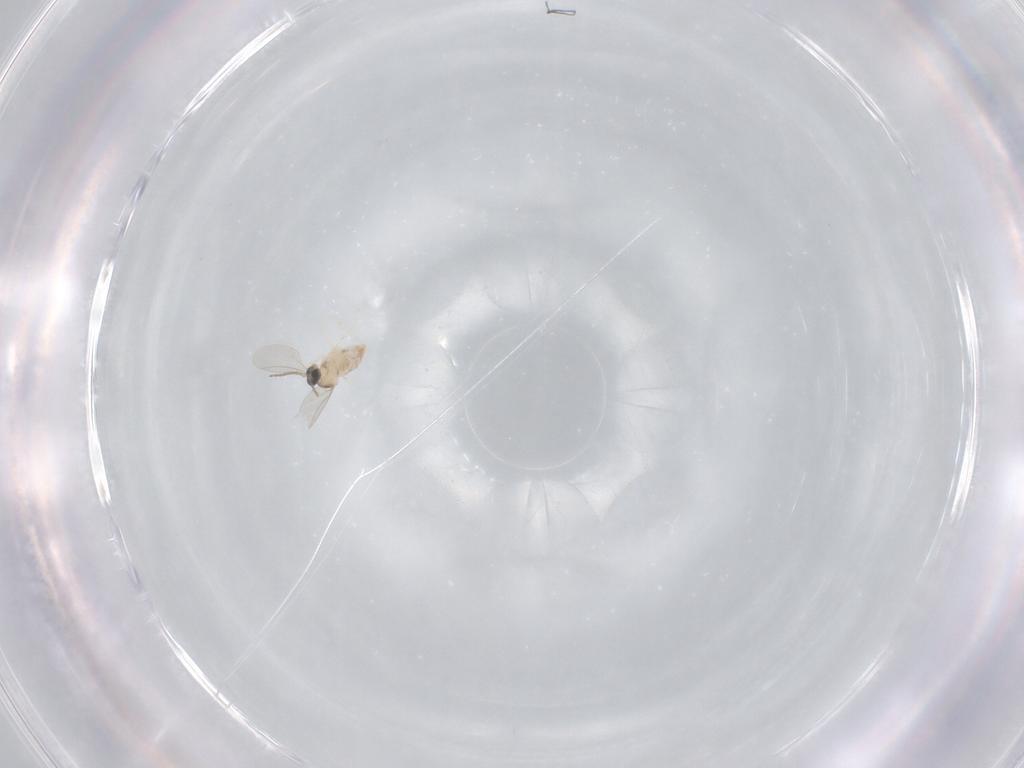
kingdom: Animalia
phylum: Arthropoda
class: Insecta
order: Diptera
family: Cecidomyiidae
